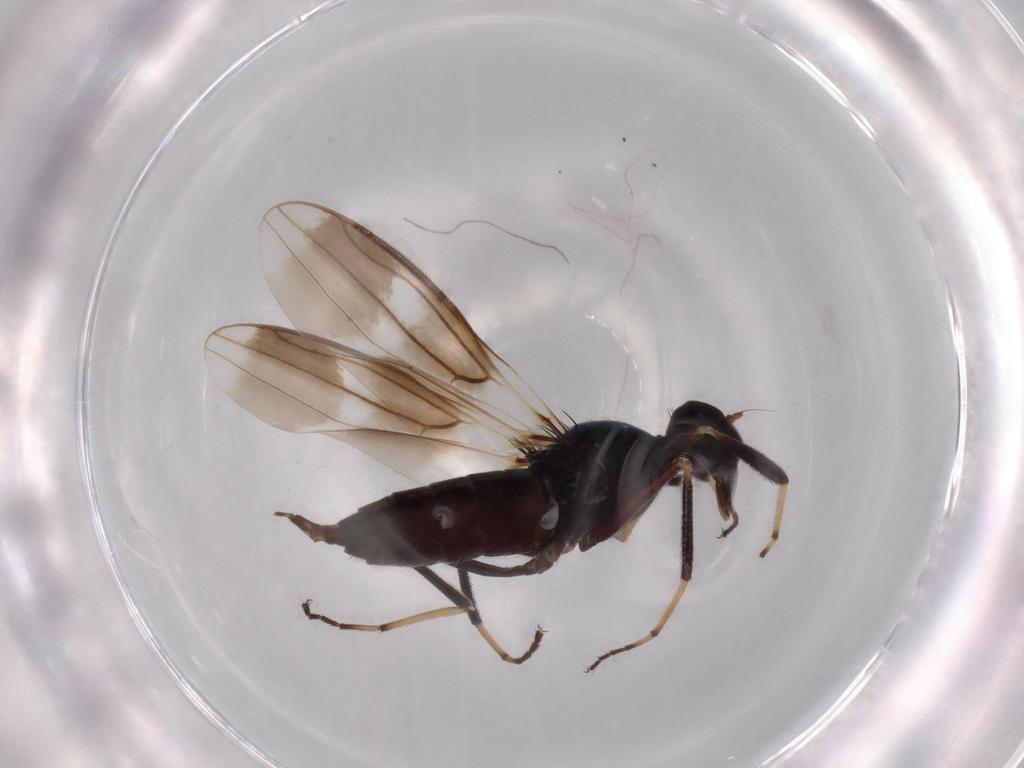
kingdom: Animalia
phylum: Arthropoda
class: Insecta
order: Diptera
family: Hybotidae
